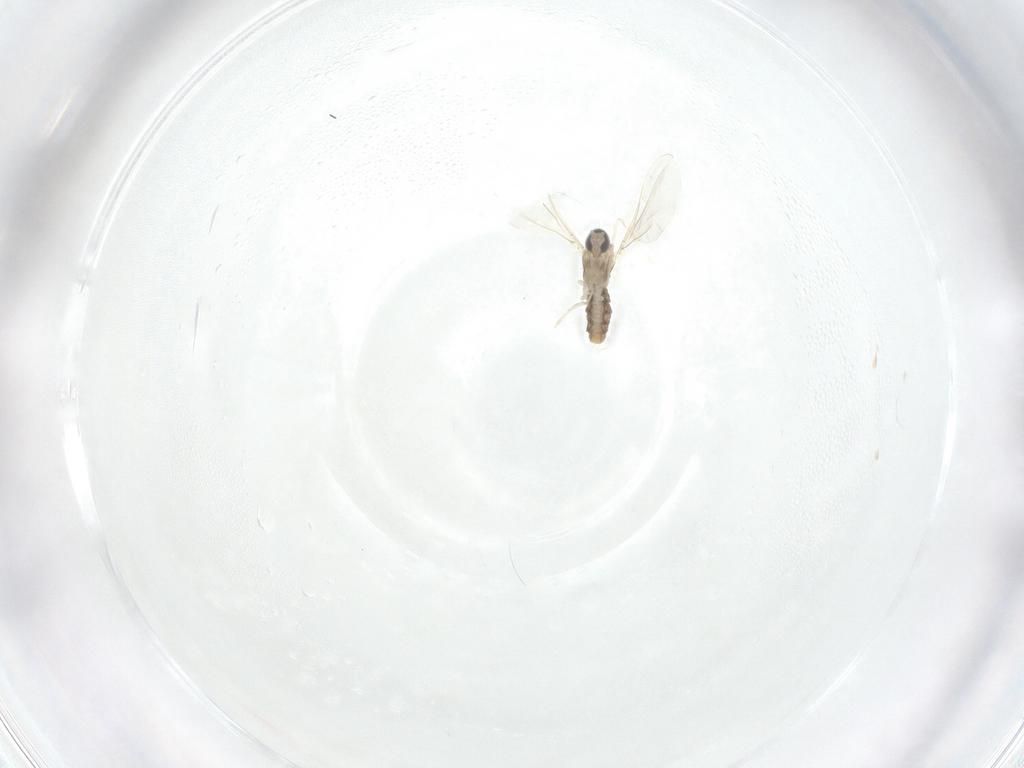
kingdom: Animalia
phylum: Arthropoda
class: Insecta
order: Diptera
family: Cecidomyiidae
